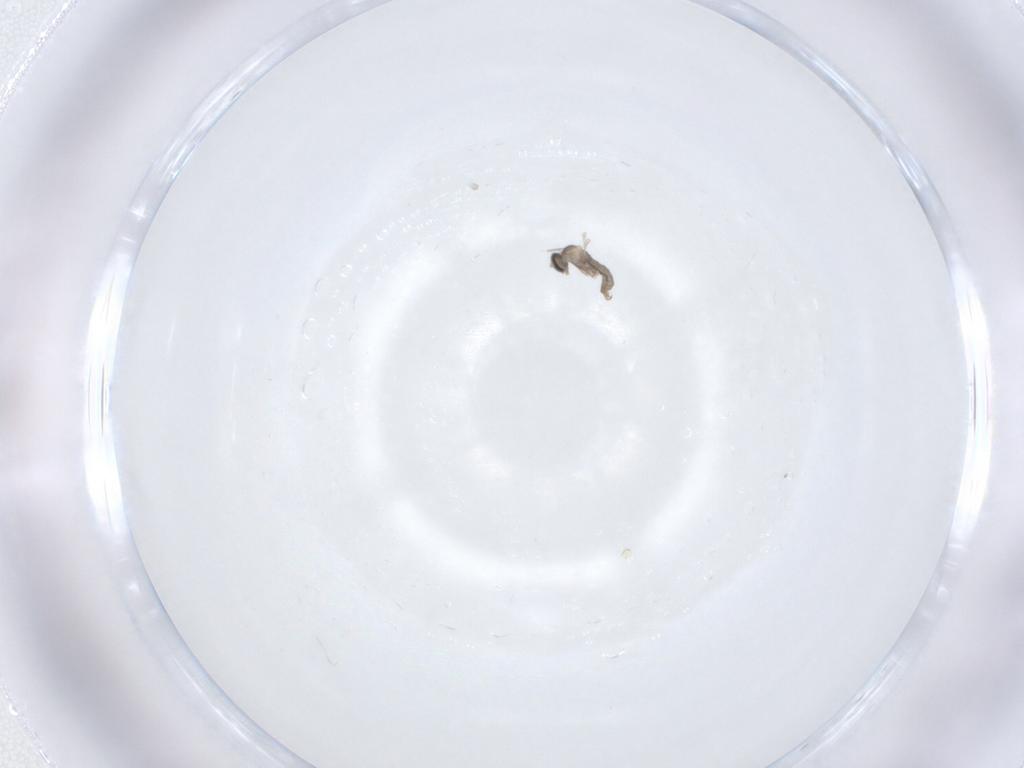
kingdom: Animalia
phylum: Arthropoda
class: Insecta
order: Diptera
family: Cecidomyiidae
